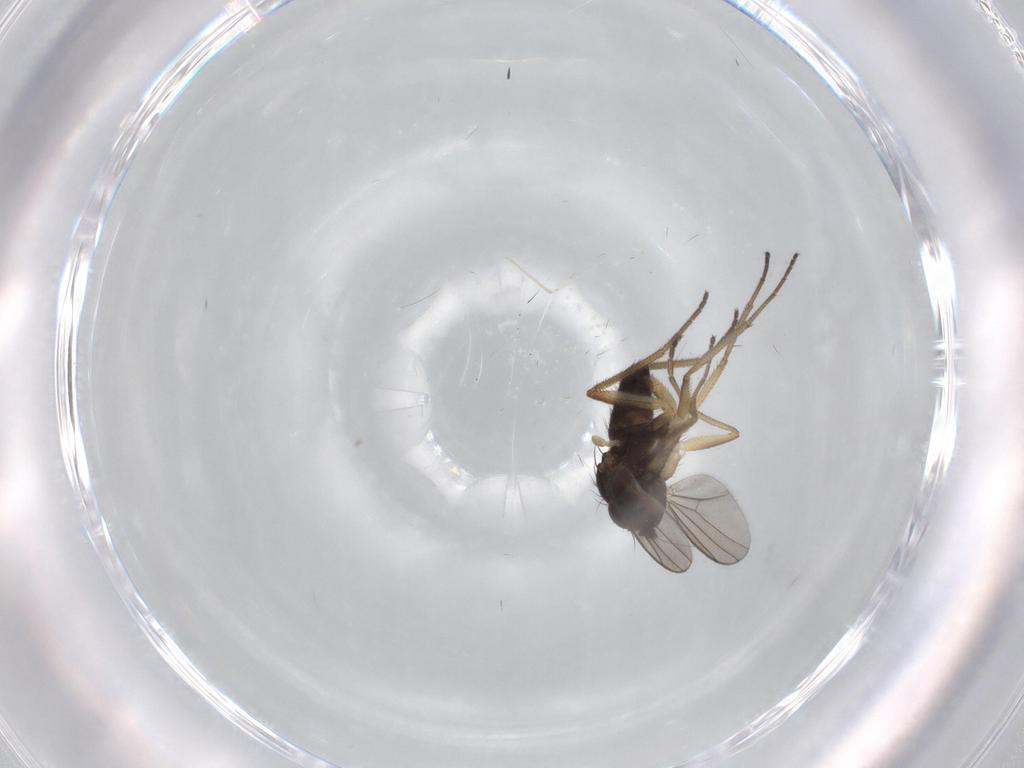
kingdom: Animalia
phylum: Arthropoda
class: Insecta
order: Diptera
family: Dolichopodidae
